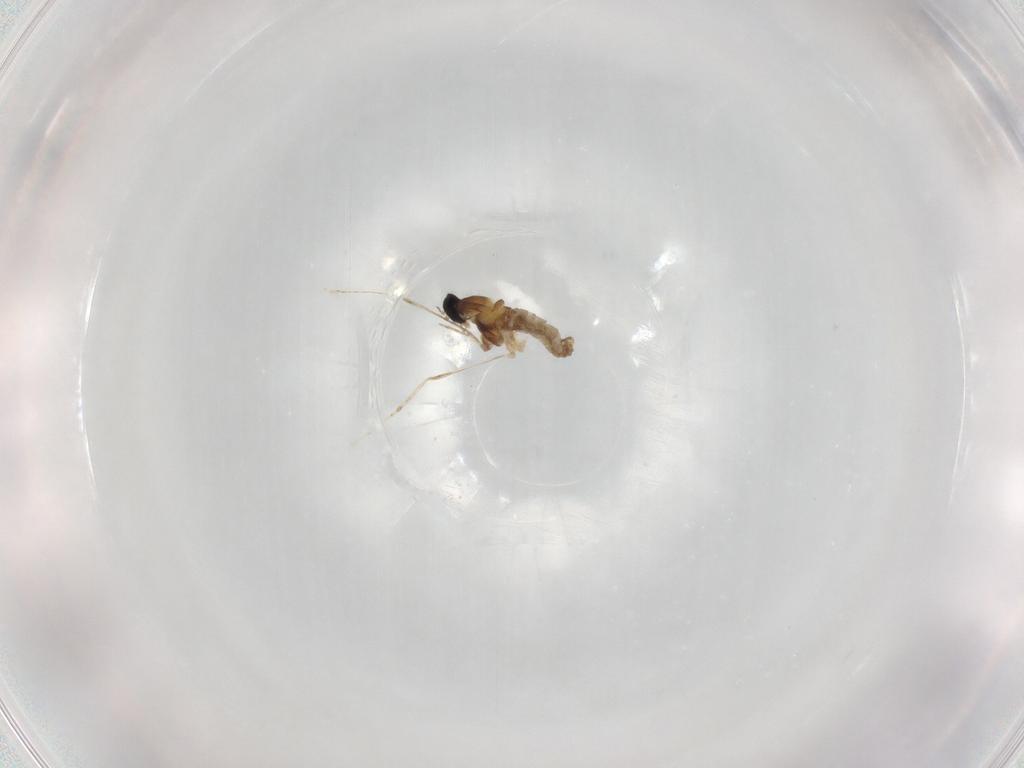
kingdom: Animalia
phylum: Arthropoda
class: Insecta
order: Diptera
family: Cecidomyiidae
